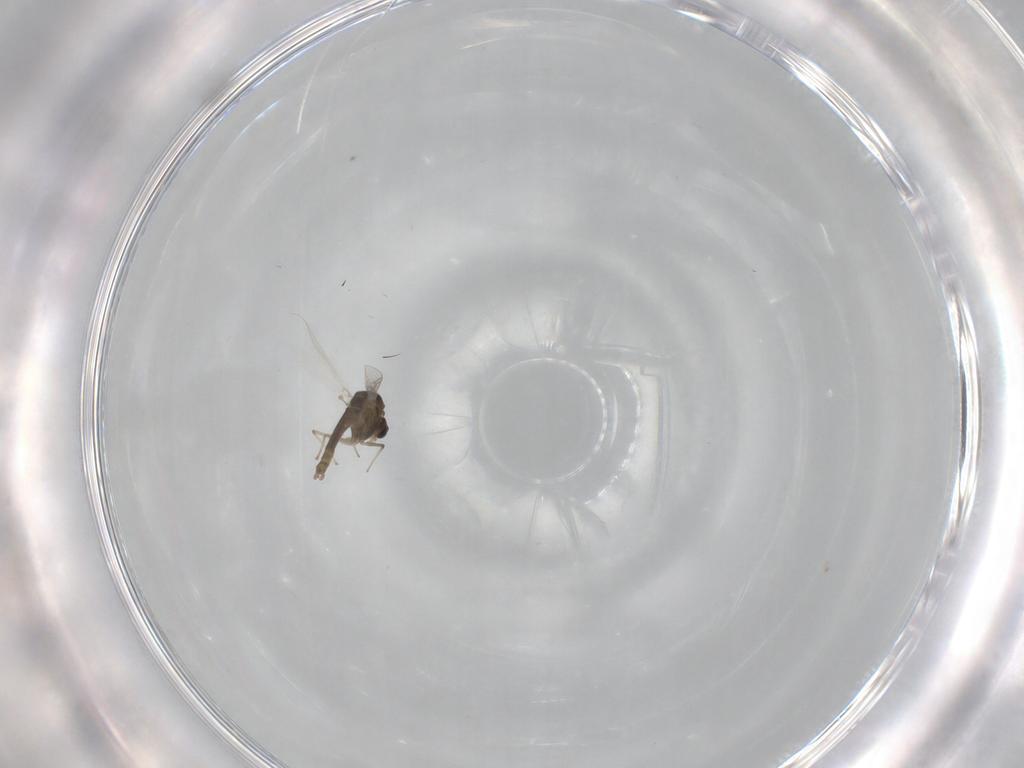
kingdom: Animalia
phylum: Arthropoda
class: Insecta
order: Diptera
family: Chironomidae
